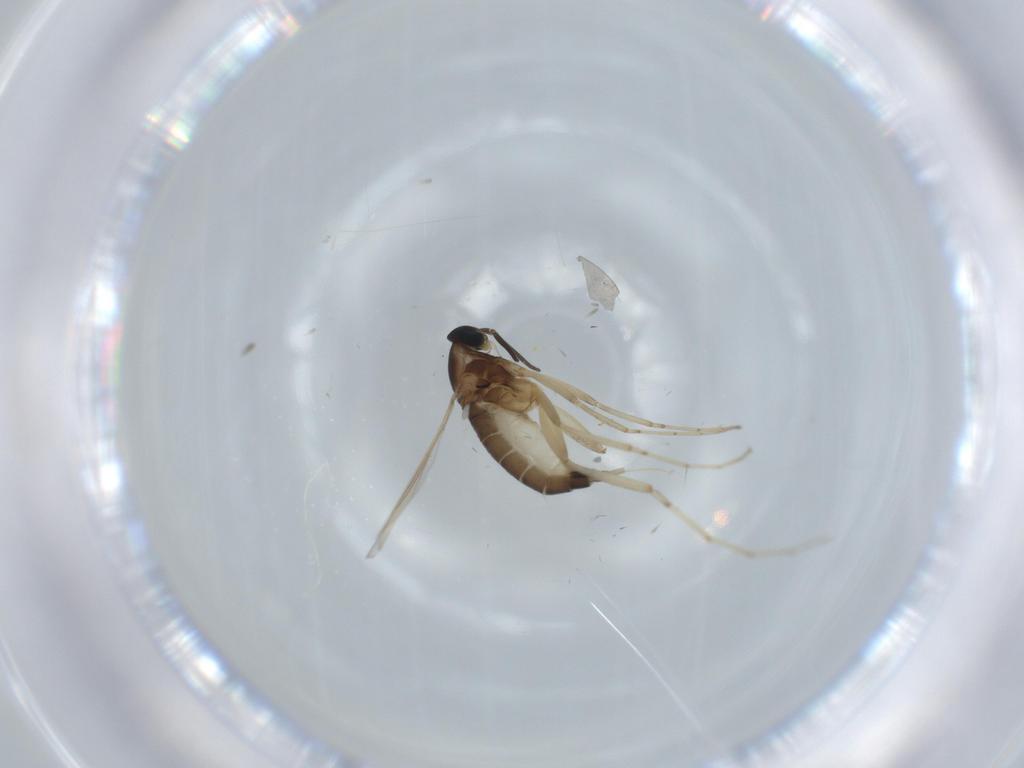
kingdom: Animalia
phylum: Arthropoda
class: Insecta
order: Diptera
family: Cecidomyiidae
